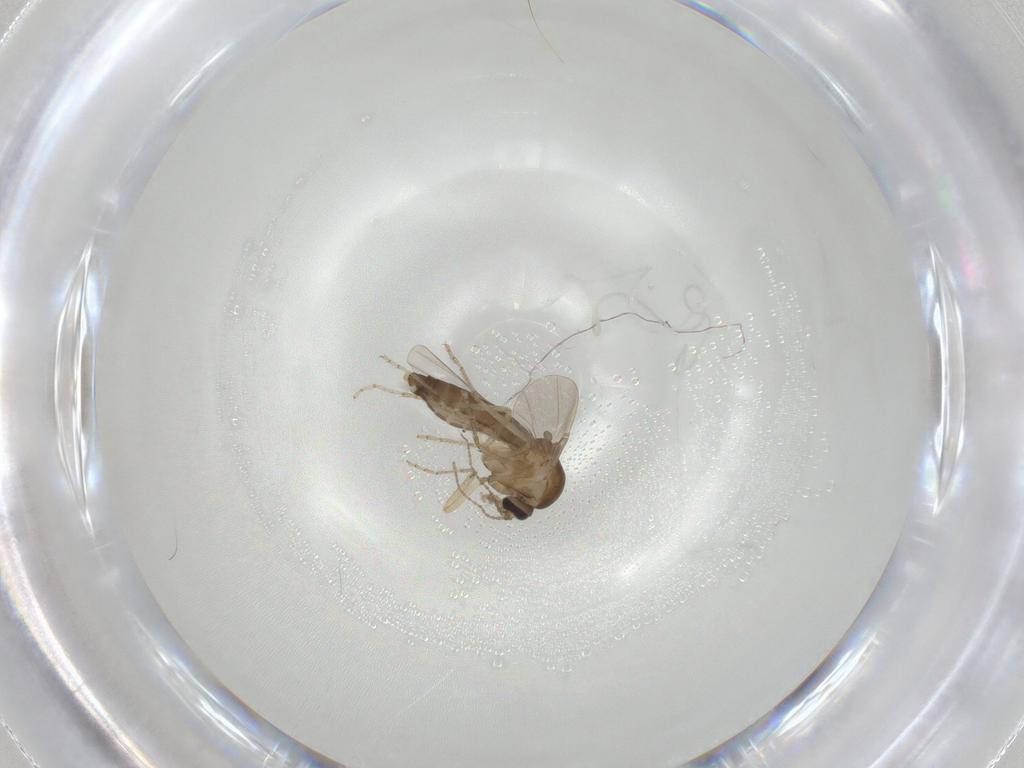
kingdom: Animalia
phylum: Arthropoda
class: Insecta
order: Diptera
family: Ceratopogonidae
